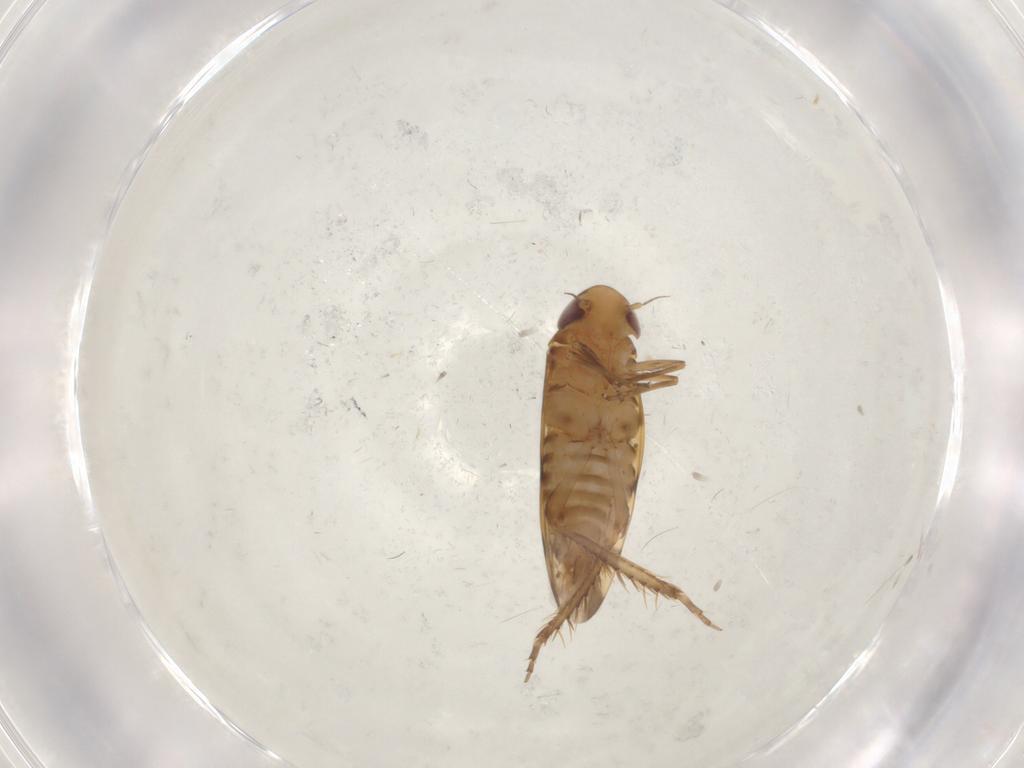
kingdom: Animalia
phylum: Arthropoda
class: Insecta
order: Hemiptera
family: Cicadellidae
